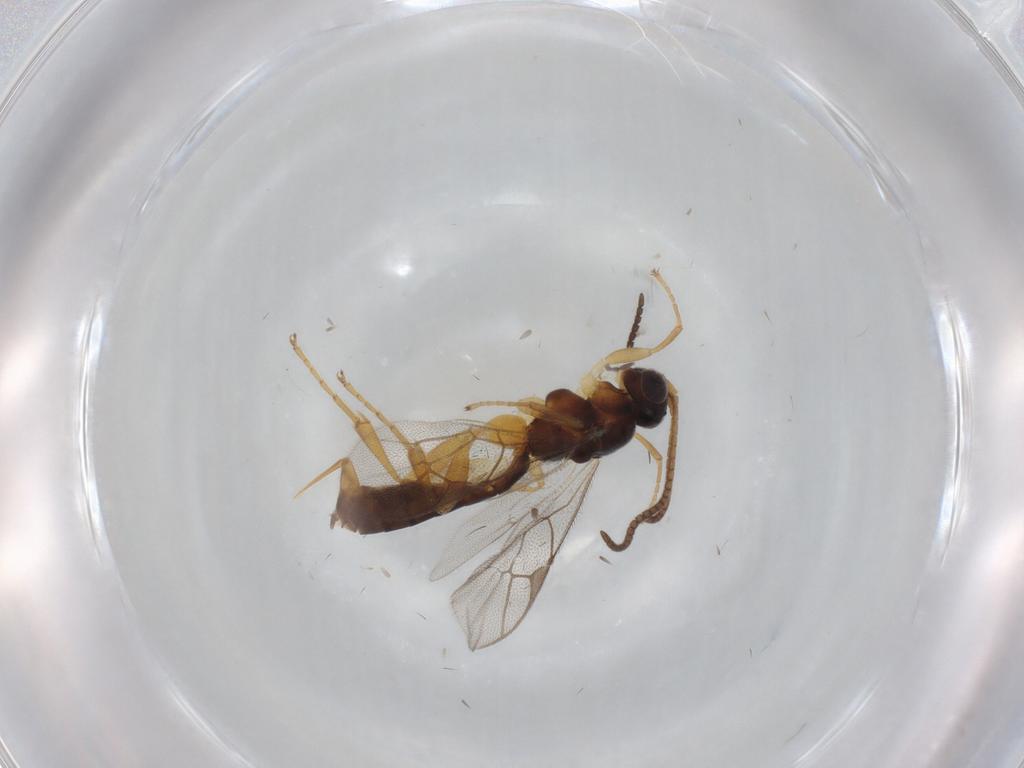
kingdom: Animalia
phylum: Arthropoda
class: Insecta
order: Hymenoptera
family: Ichneumonidae
